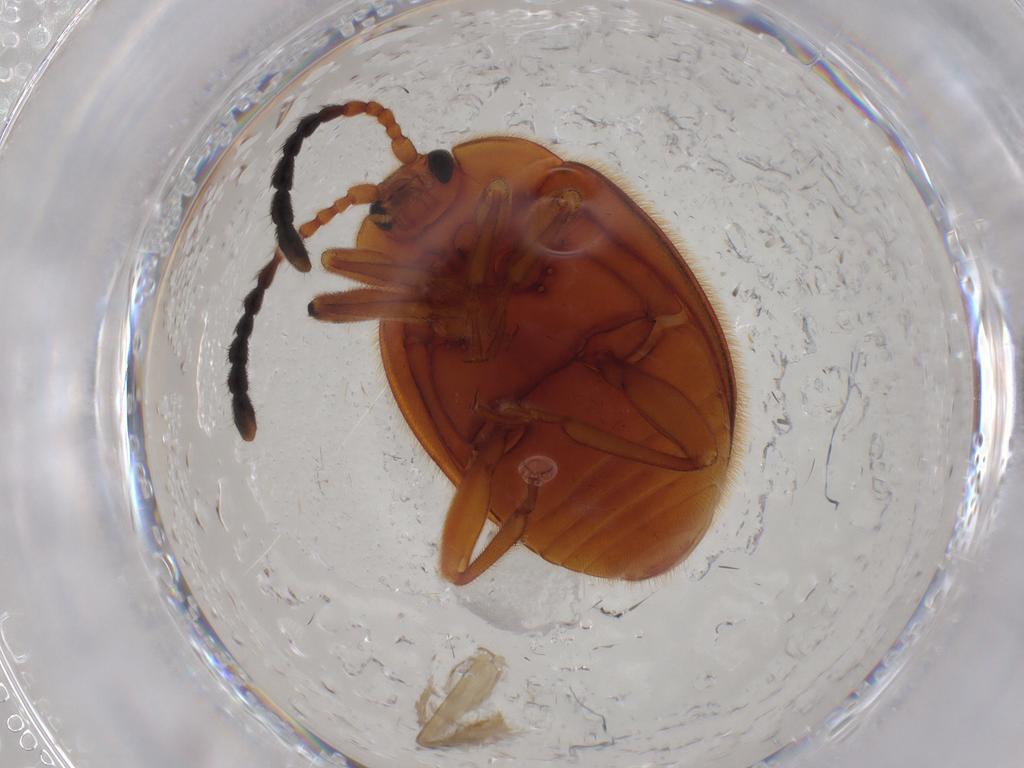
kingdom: Animalia
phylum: Arthropoda
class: Insecta
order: Coleoptera
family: Endomychidae
